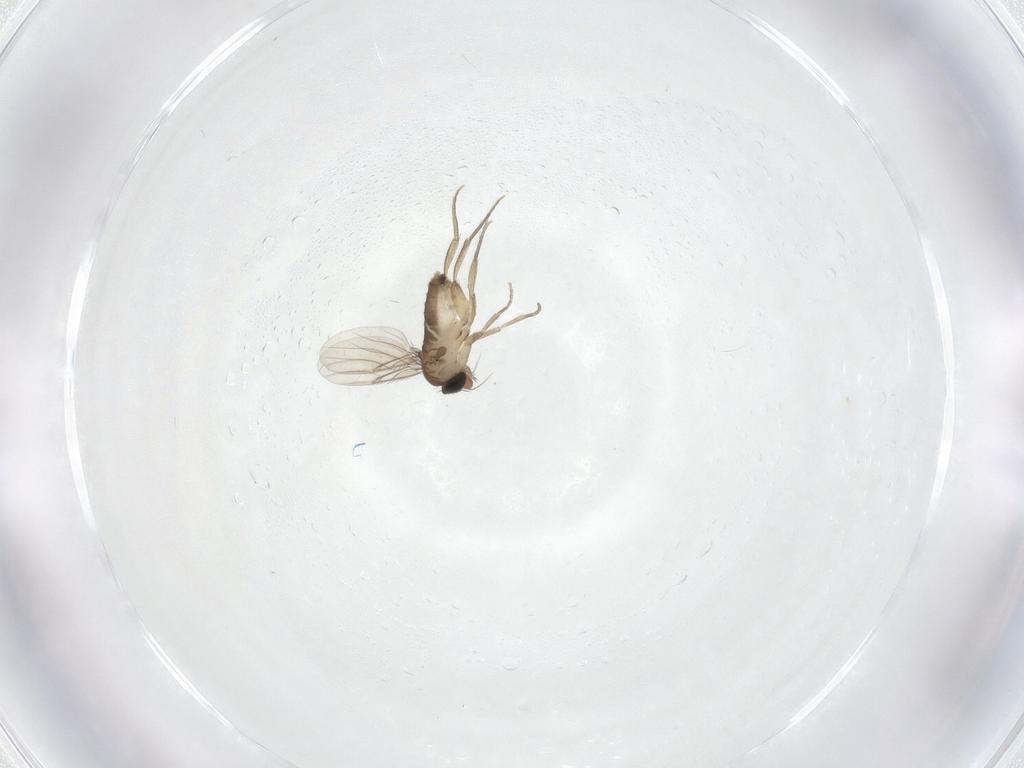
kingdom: Animalia
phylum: Arthropoda
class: Insecta
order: Diptera
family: Phoridae
